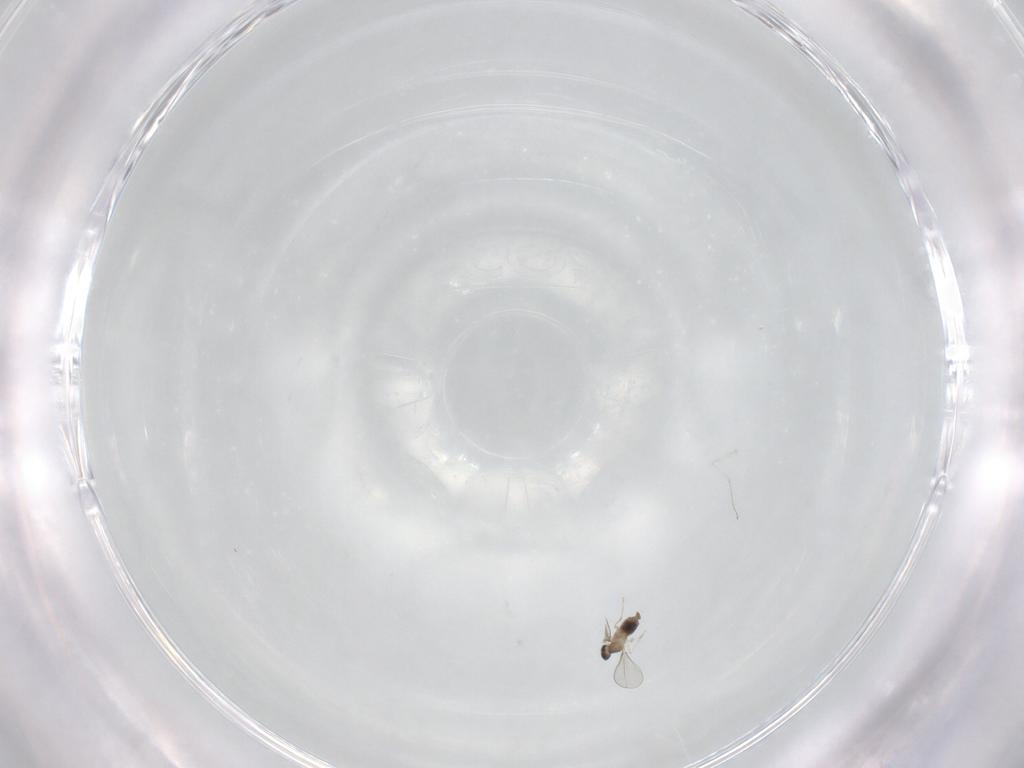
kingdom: Animalia
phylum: Arthropoda
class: Insecta
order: Diptera
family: Cecidomyiidae
